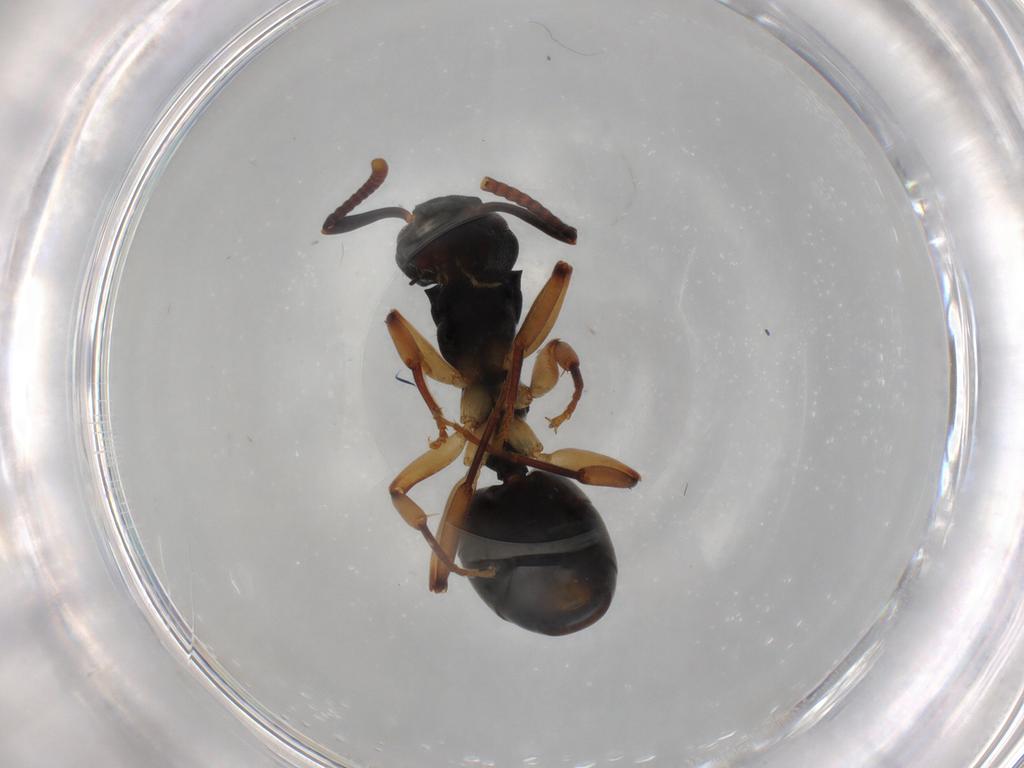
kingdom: Animalia
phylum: Arthropoda
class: Insecta
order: Hymenoptera
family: Formicidae
